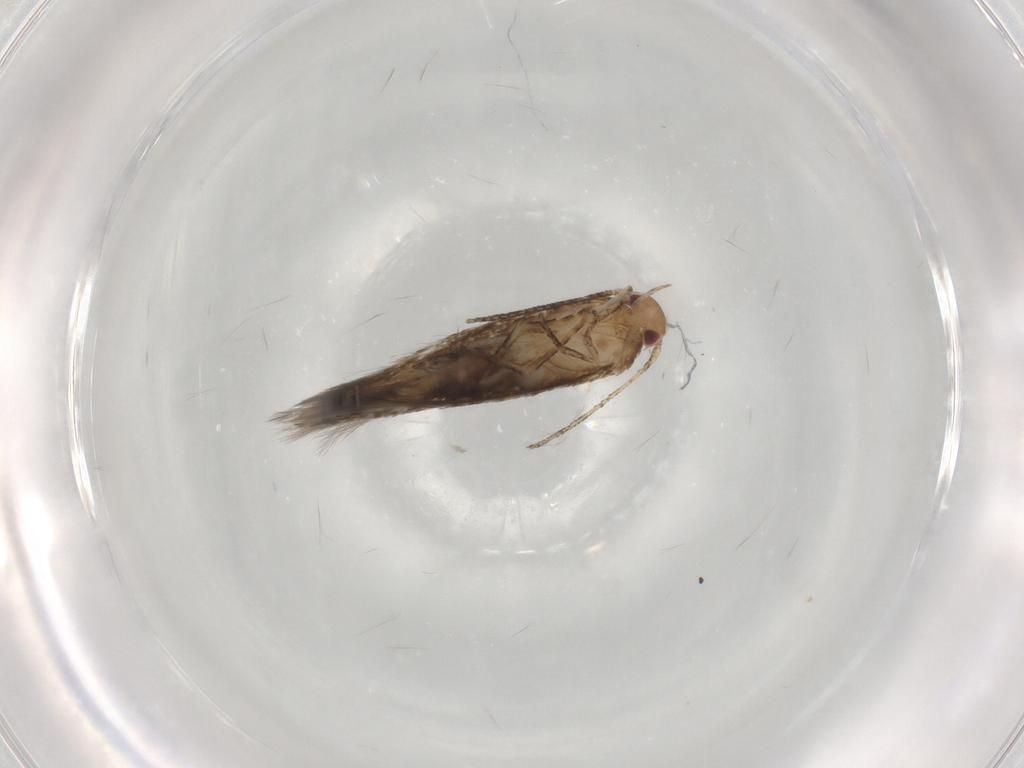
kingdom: Animalia
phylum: Arthropoda
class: Insecta
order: Lepidoptera
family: Momphidae
